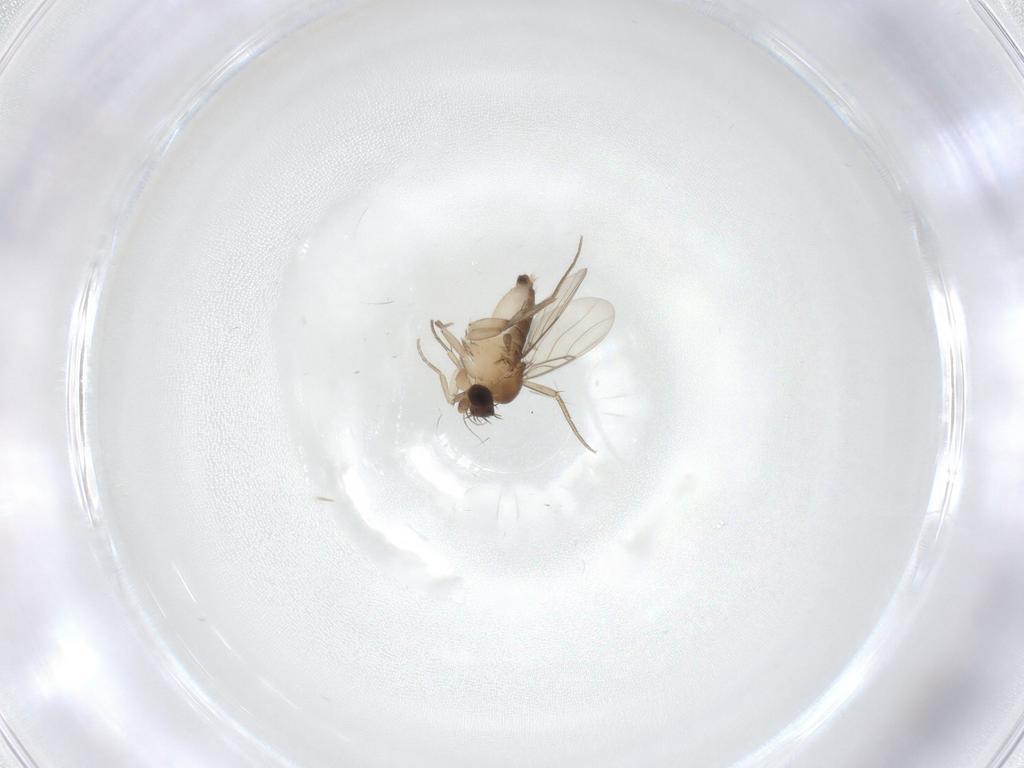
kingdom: Animalia
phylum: Arthropoda
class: Insecta
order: Diptera
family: Phoridae
